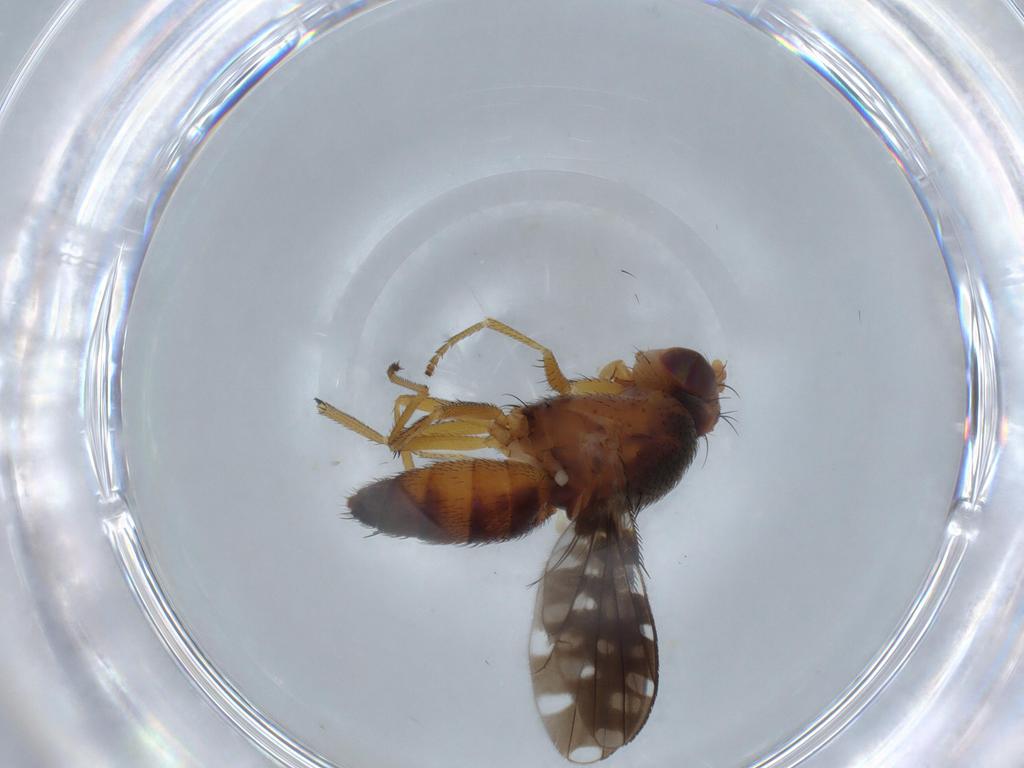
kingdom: Animalia
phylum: Arthropoda
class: Insecta
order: Diptera
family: Ephydridae
